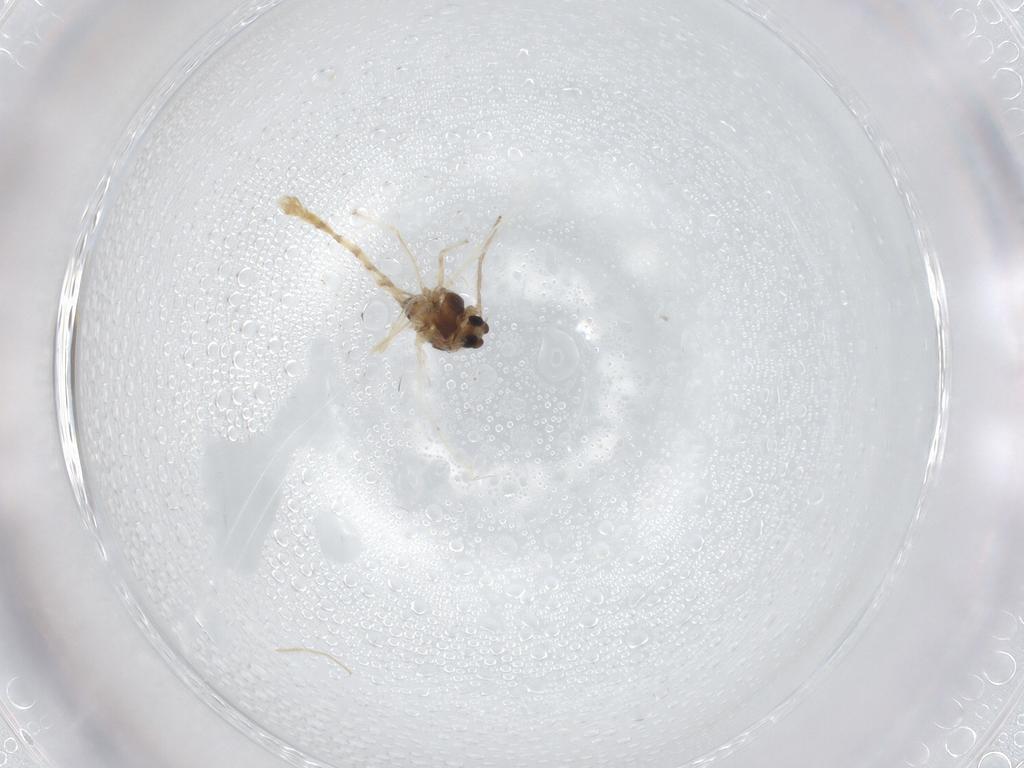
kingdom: Animalia
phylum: Arthropoda
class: Insecta
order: Diptera
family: Chironomidae
